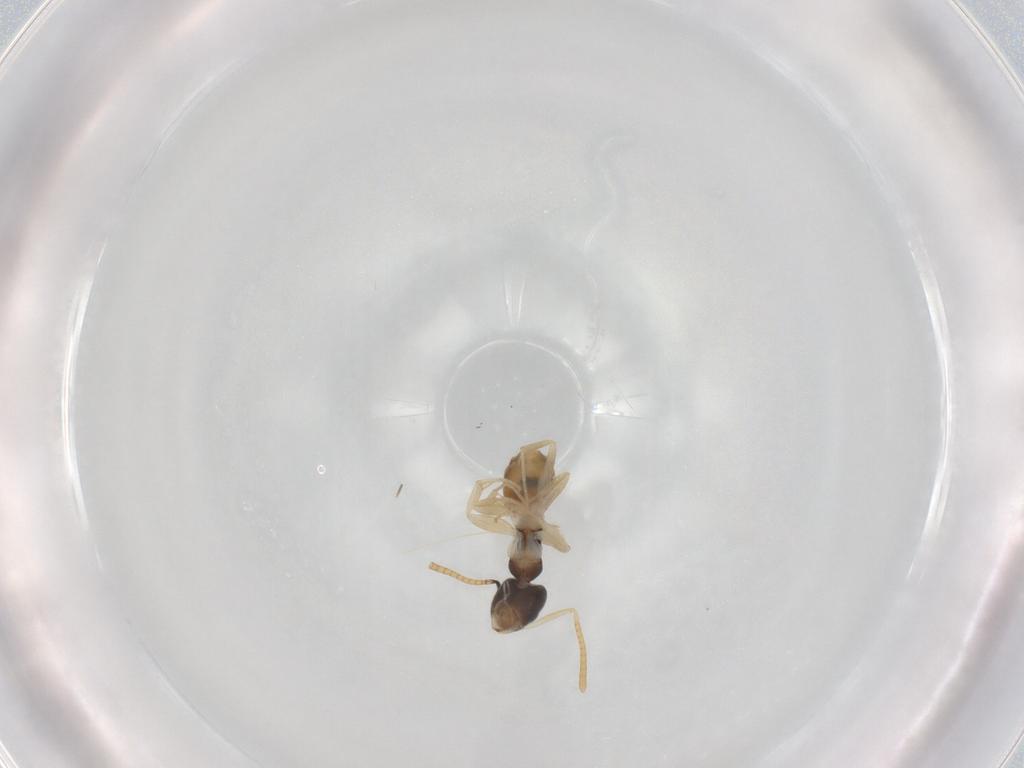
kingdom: Animalia
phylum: Arthropoda
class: Insecta
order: Hymenoptera
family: Formicidae
